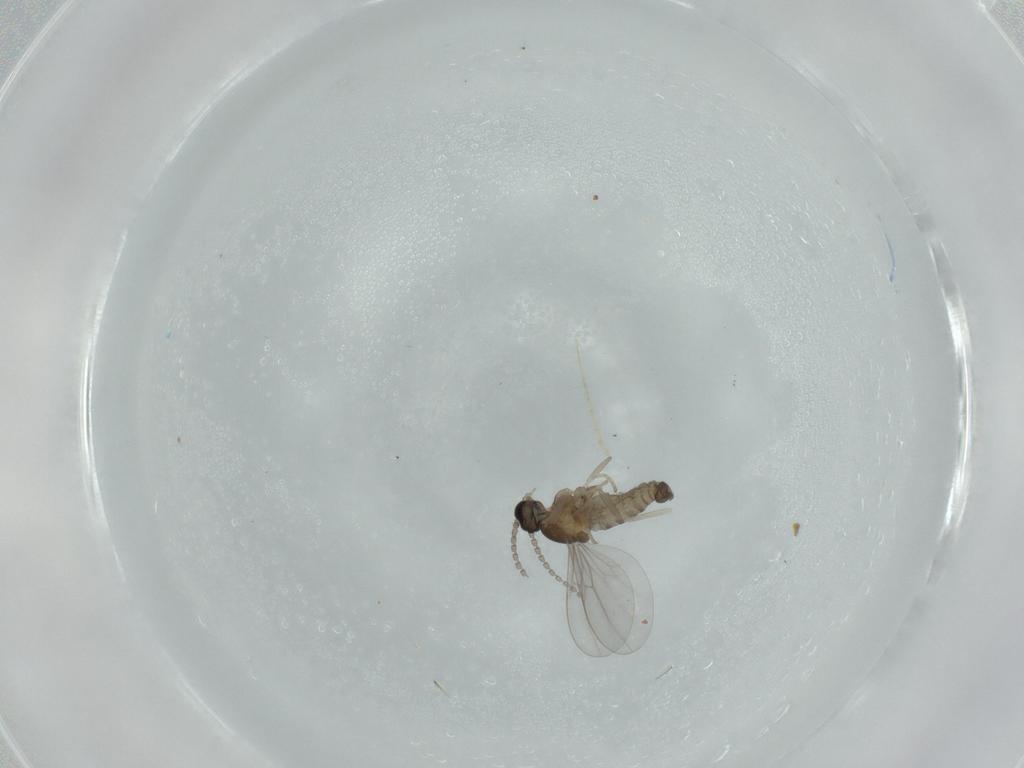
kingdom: Animalia
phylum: Arthropoda
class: Insecta
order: Diptera
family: Cecidomyiidae
